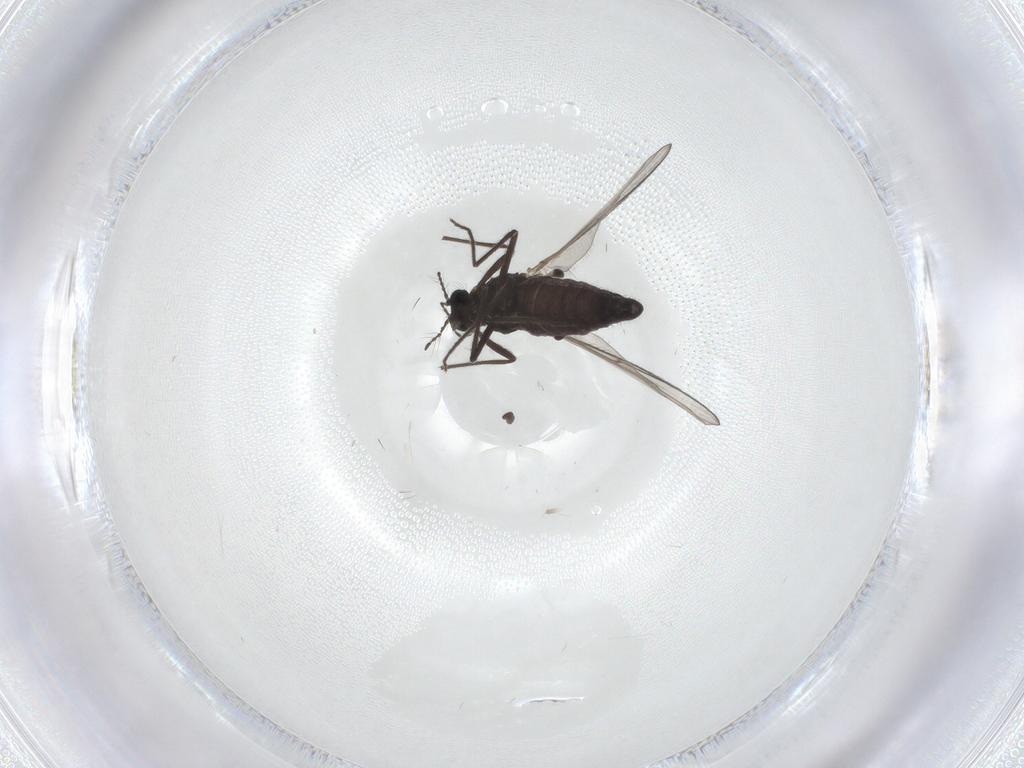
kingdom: Animalia
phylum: Arthropoda
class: Insecta
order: Diptera
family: Chironomidae
